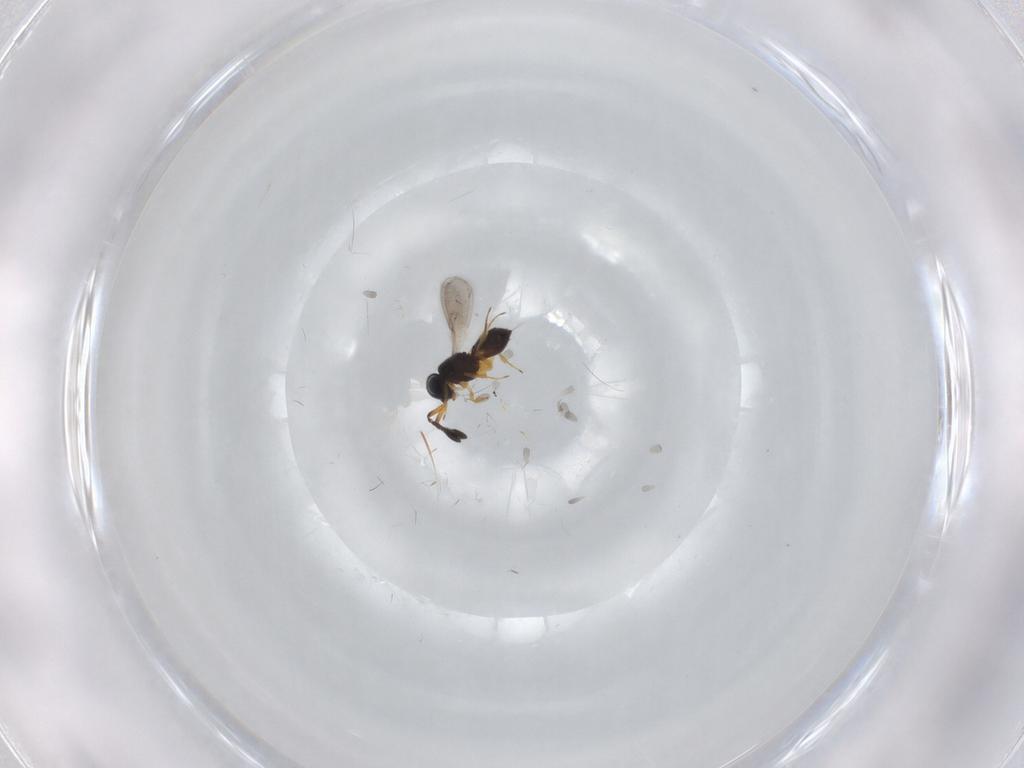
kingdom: Animalia
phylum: Arthropoda
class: Insecta
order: Hymenoptera
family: Scelionidae
